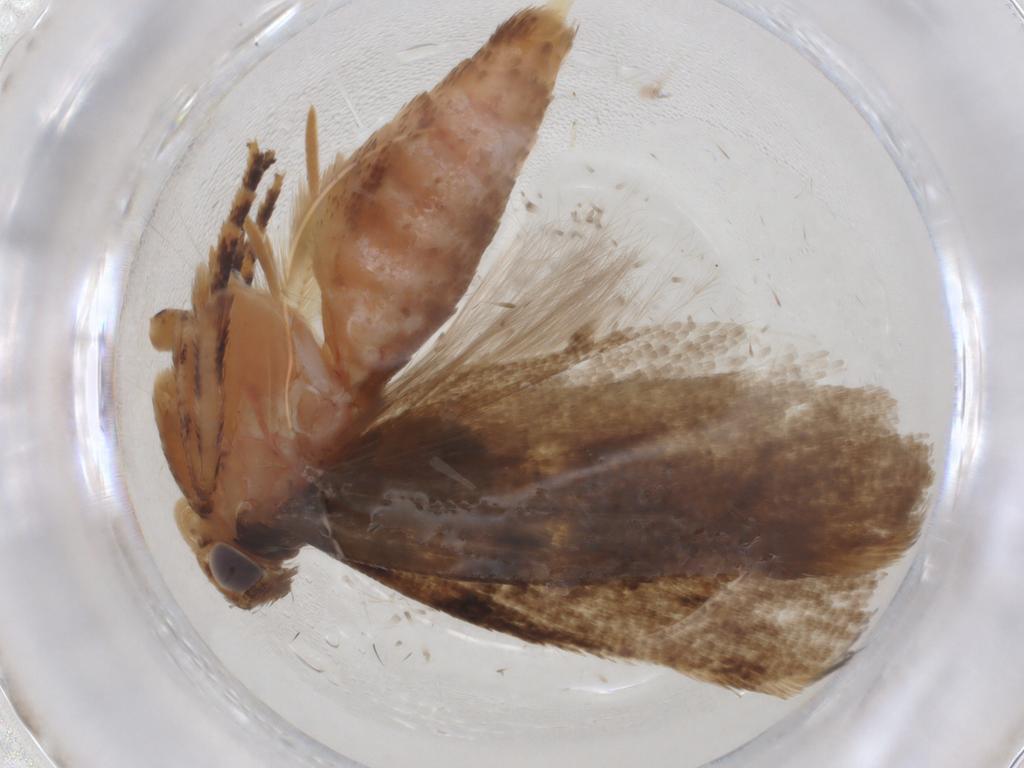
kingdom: Animalia
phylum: Arthropoda
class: Insecta
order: Lepidoptera
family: Gelechiidae
